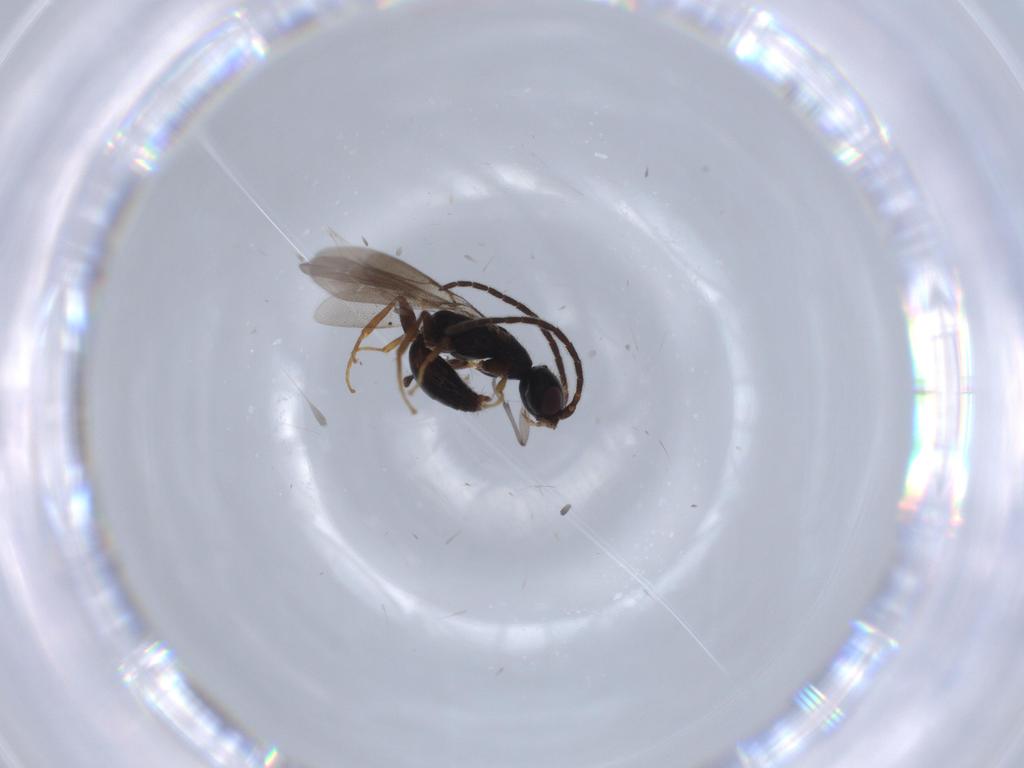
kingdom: Animalia
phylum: Arthropoda
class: Insecta
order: Hymenoptera
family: Bethylidae
